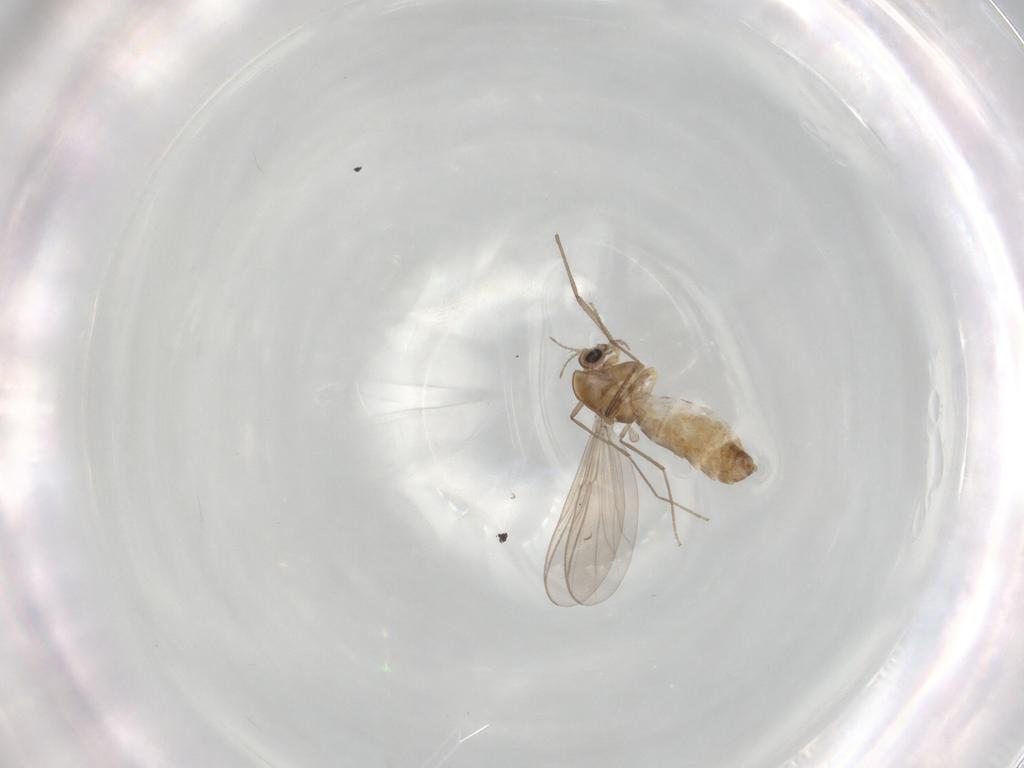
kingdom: Animalia
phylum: Arthropoda
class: Insecta
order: Diptera
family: Chironomidae
